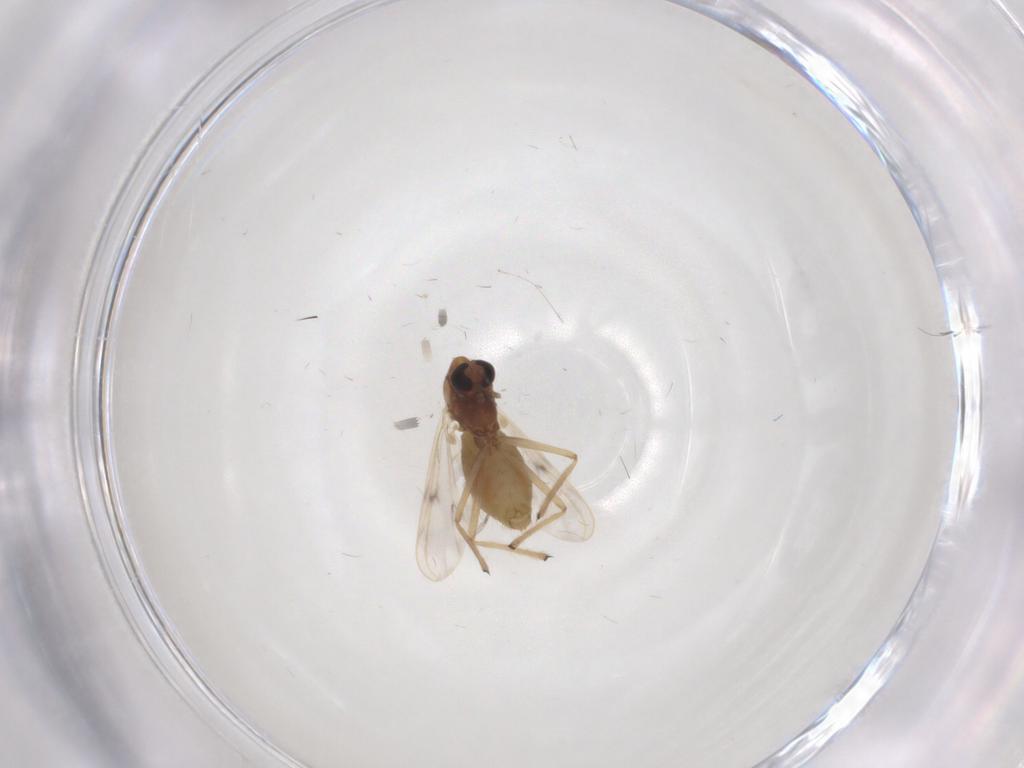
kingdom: Animalia
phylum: Arthropoda
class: Insecta
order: Diptera
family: Chironomidae
